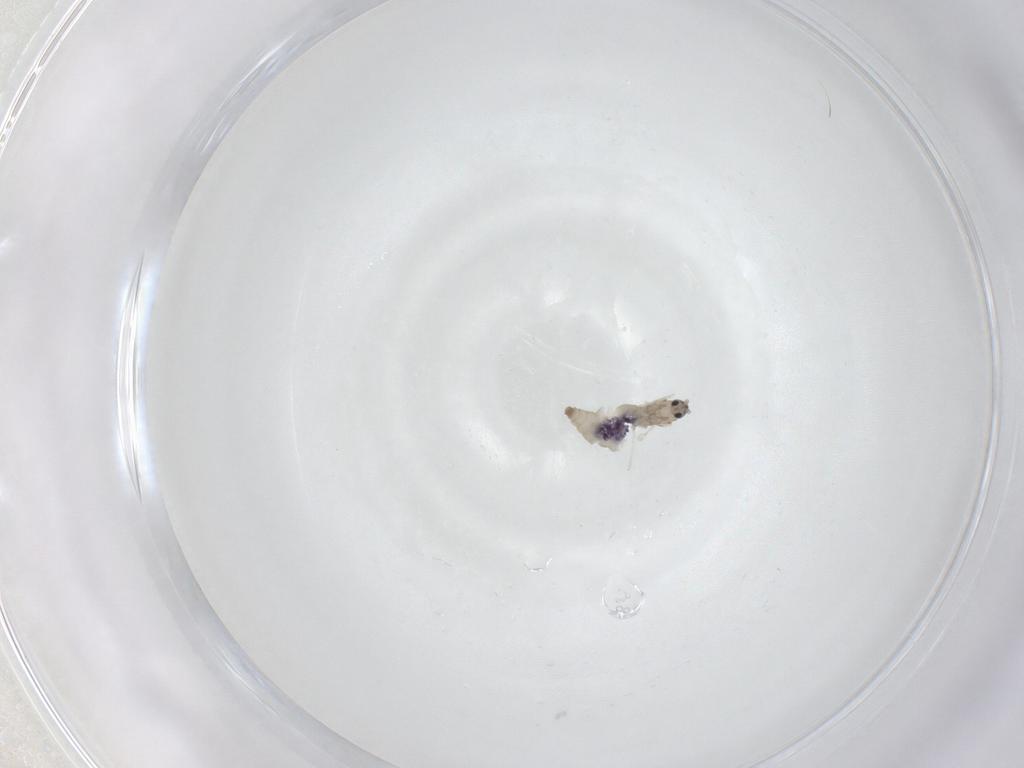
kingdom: Animalia
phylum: Arthropoda
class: Insecta
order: Diptera
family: Cecidomyiidae
